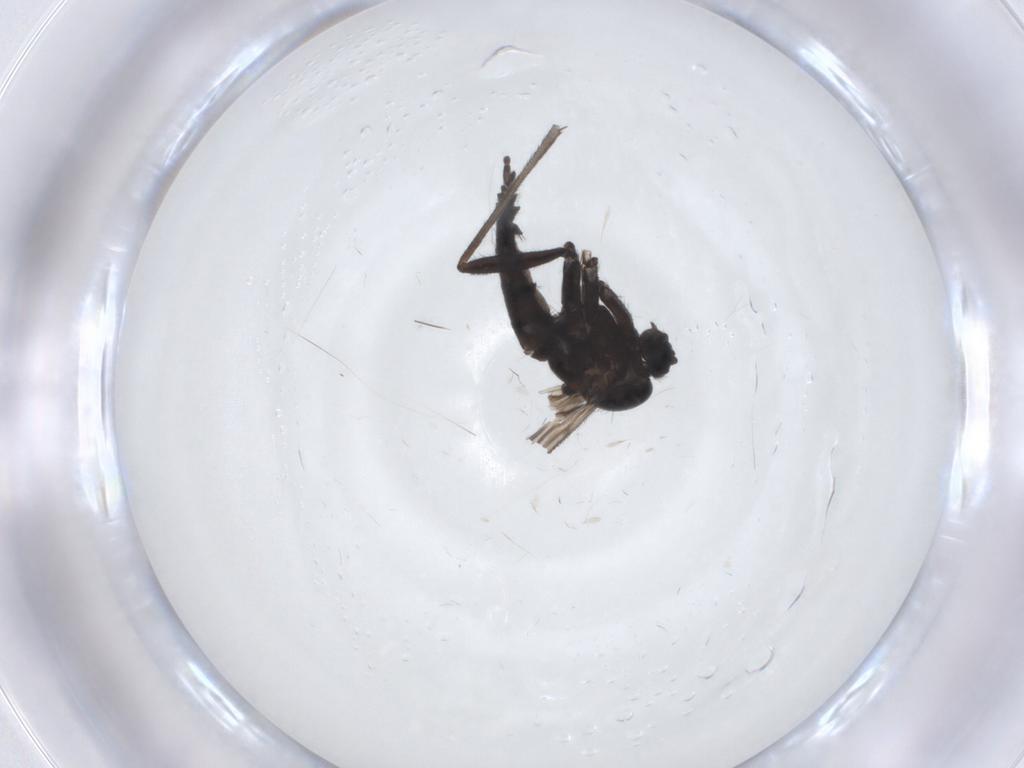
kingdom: Animalia
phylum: Arthropoda
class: Insecta
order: Diptera
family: Sciaridae
